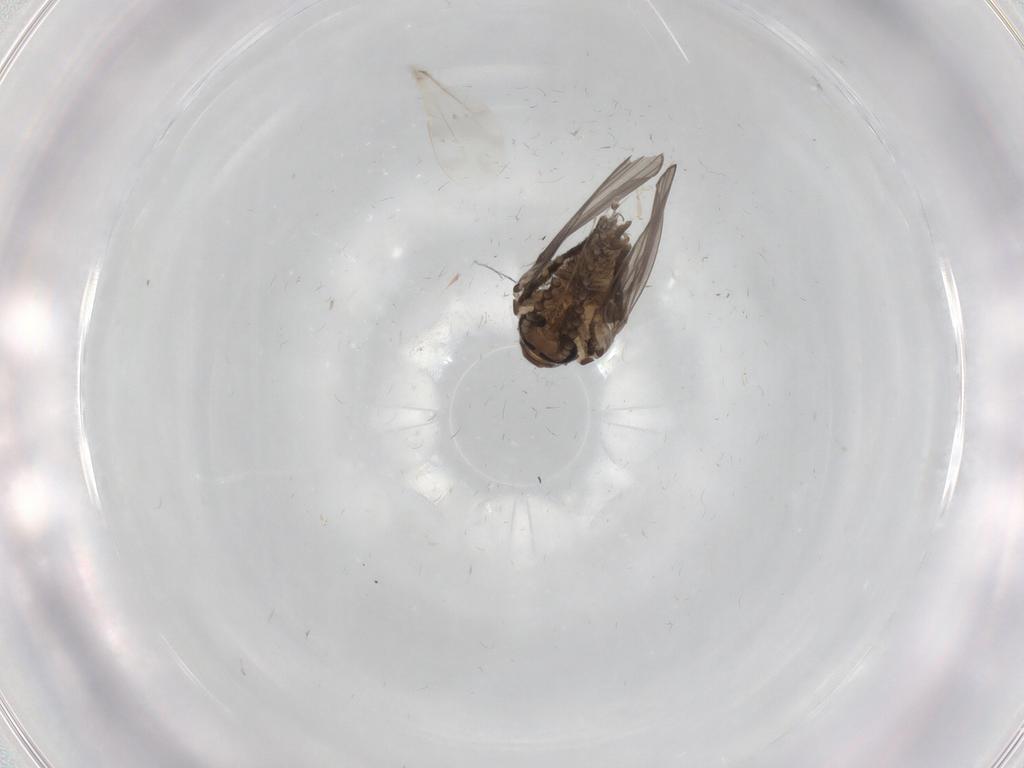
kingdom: Animalia
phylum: Arthropoda
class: Insecta
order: Diptera
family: Psychodidae
